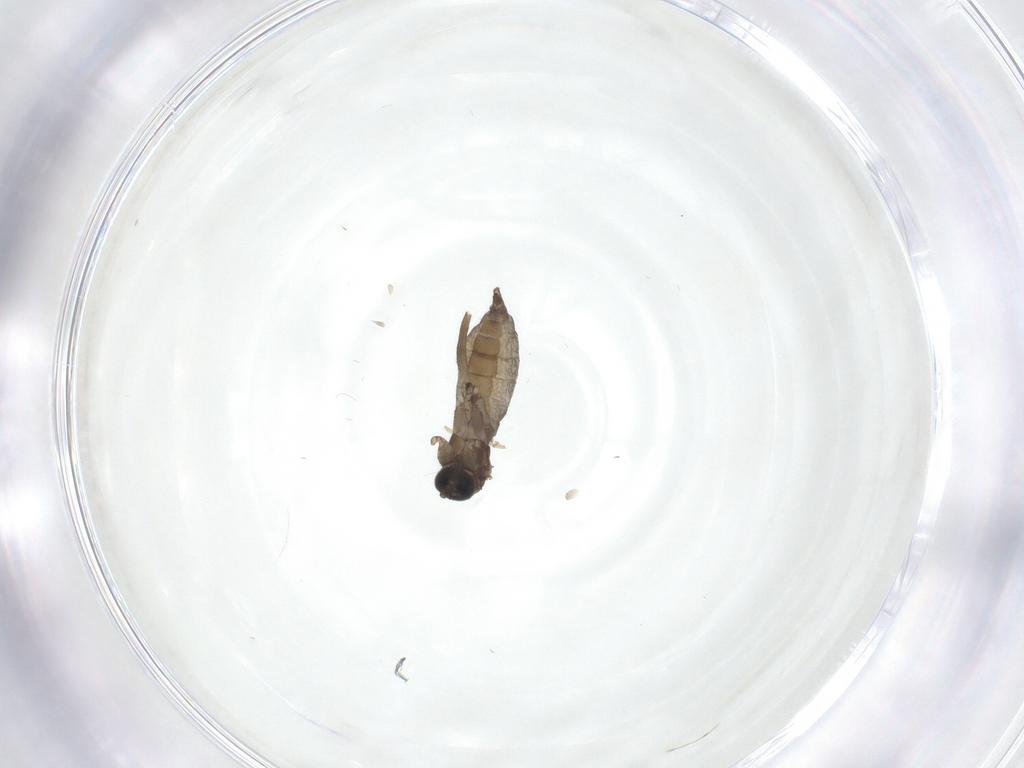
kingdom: Animalia
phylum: Arthropoda
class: Insecta
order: Diptera
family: Sciaridae
